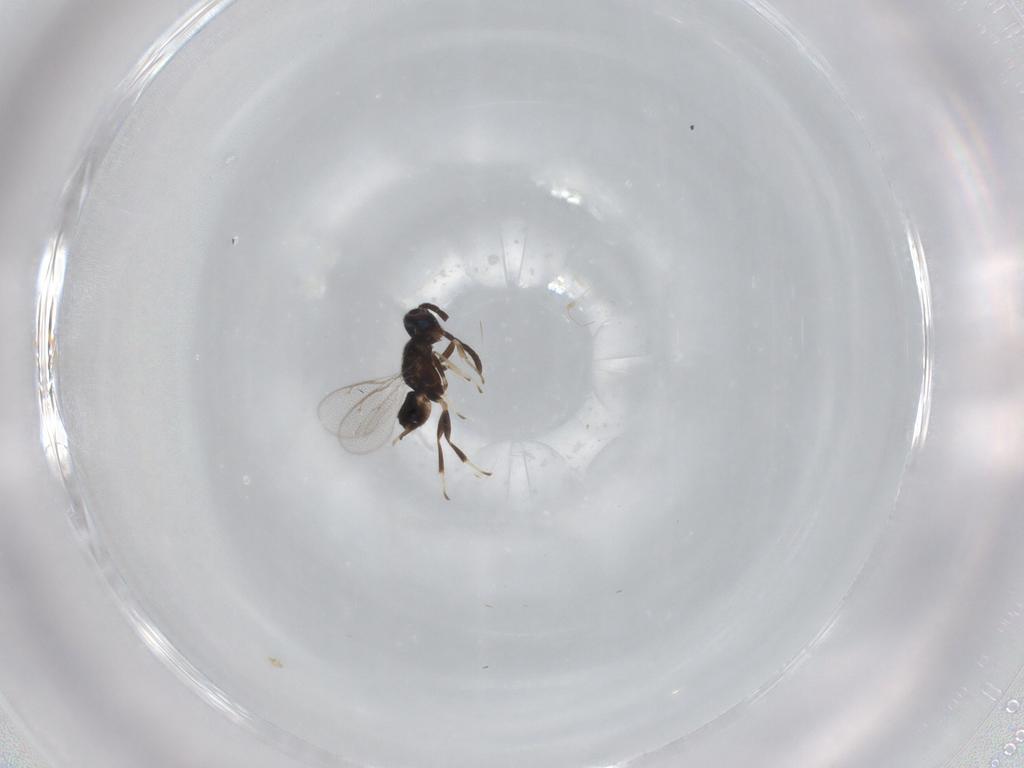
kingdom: Animalia
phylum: Arthropoda
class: Insecta
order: Hymenoptera
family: Eupelmidae
